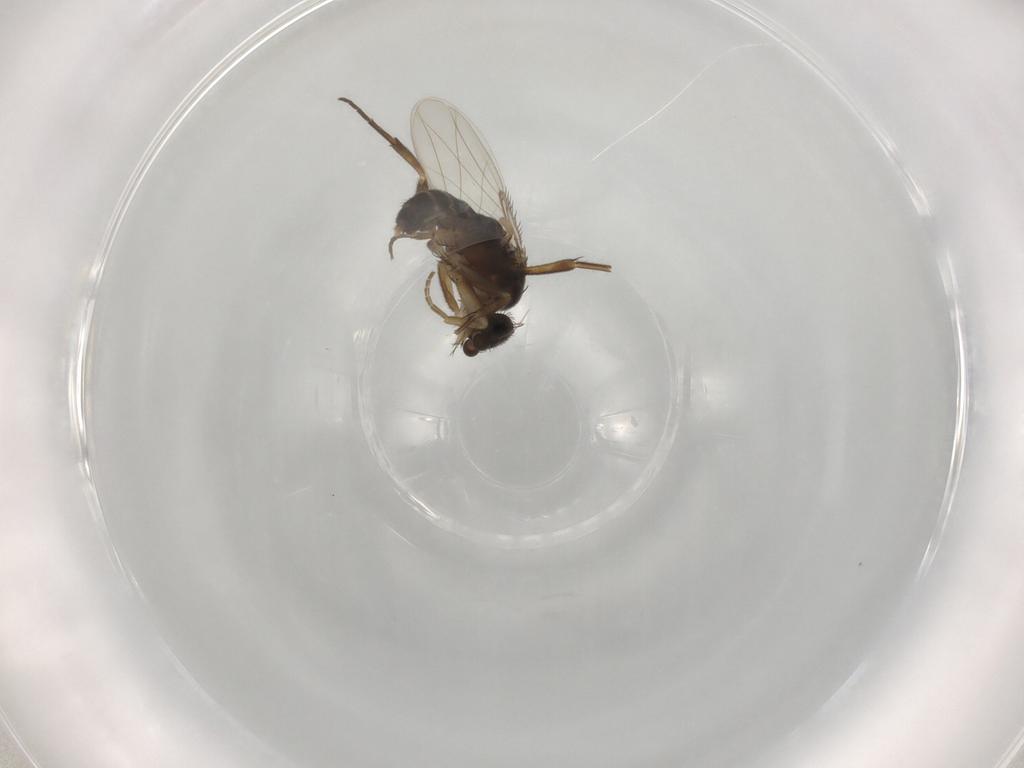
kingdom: Animalia
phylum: Arthropoda
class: Insecta
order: Diptera
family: Phoridae
